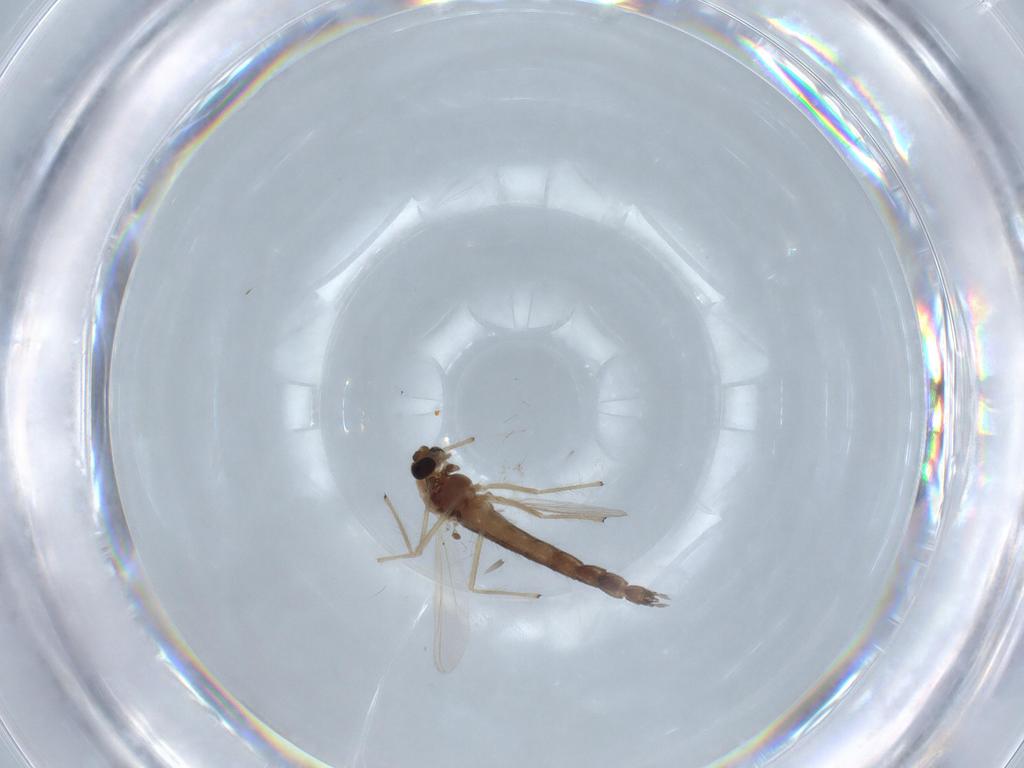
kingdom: Animalia
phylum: Arthropoda
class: Insecta
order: Diptera
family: Chironomidae
